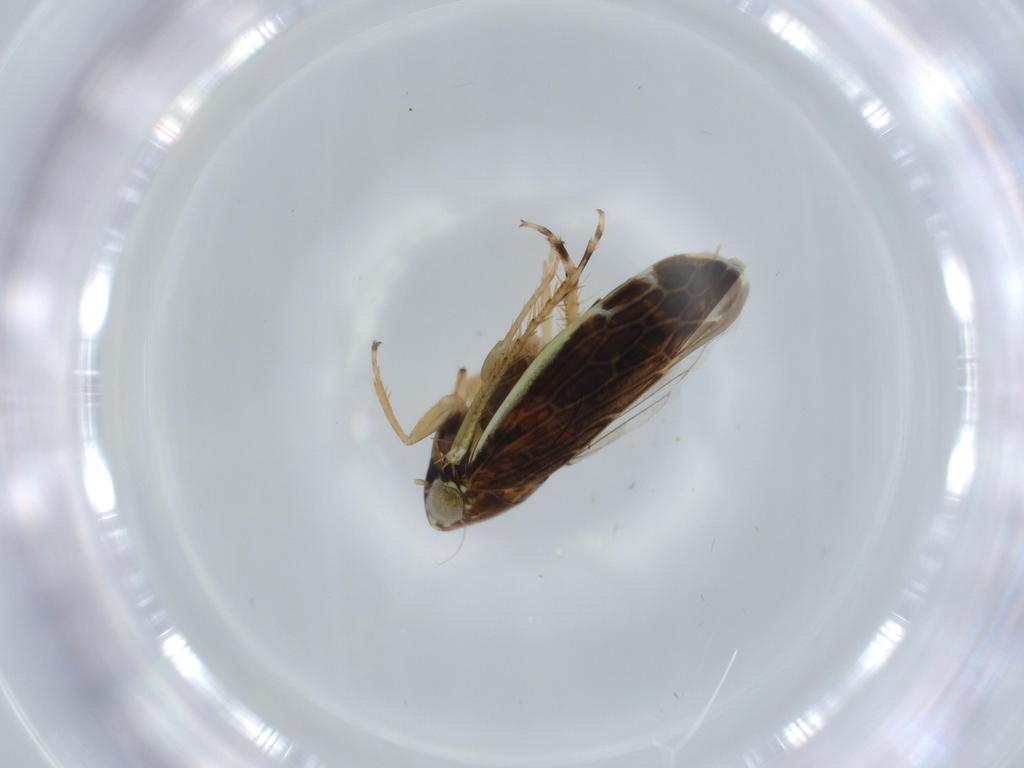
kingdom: Animalia
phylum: Arthropoda
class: Insecta
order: Hemiptera
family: Cicadellidae
